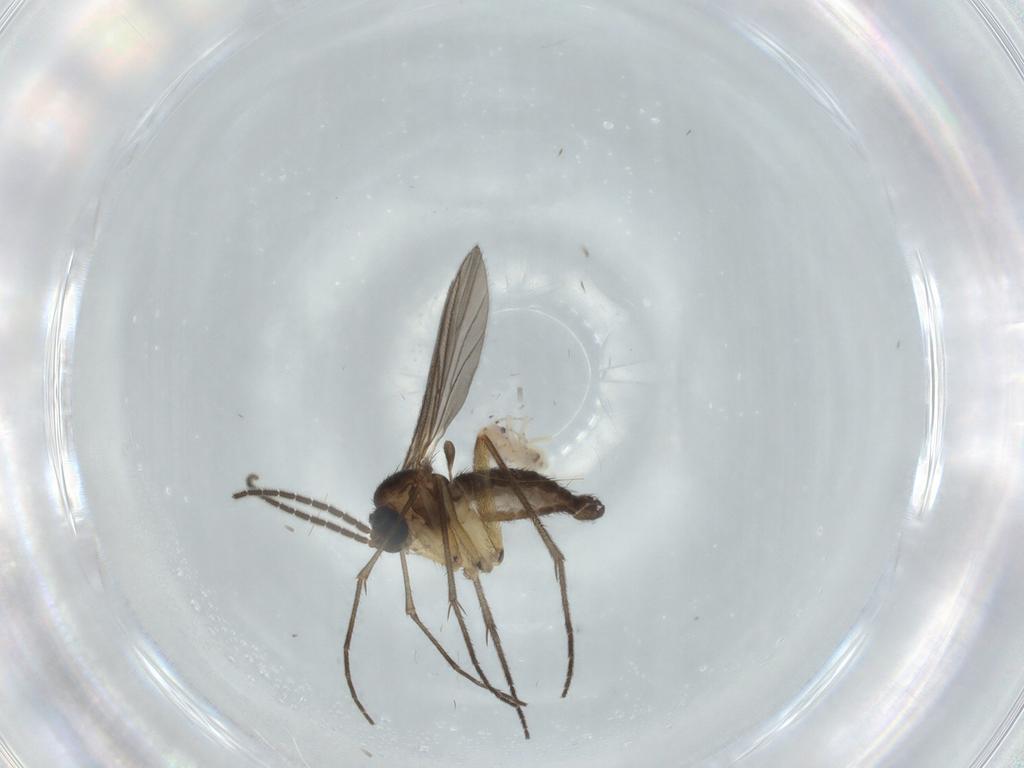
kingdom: Animalia
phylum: Arthropoda
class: Insecta
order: Diptera
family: Sciaridae
